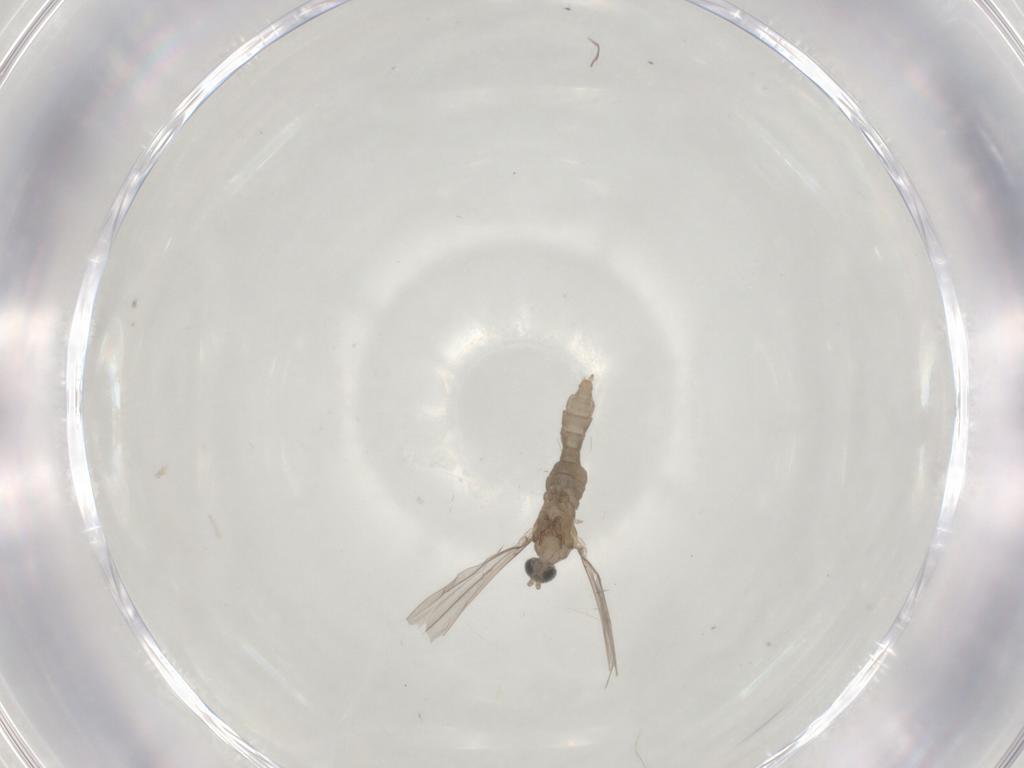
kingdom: Animalia
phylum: Arthropoda
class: Insecta
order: Diptera
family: Cecidomyiidae
